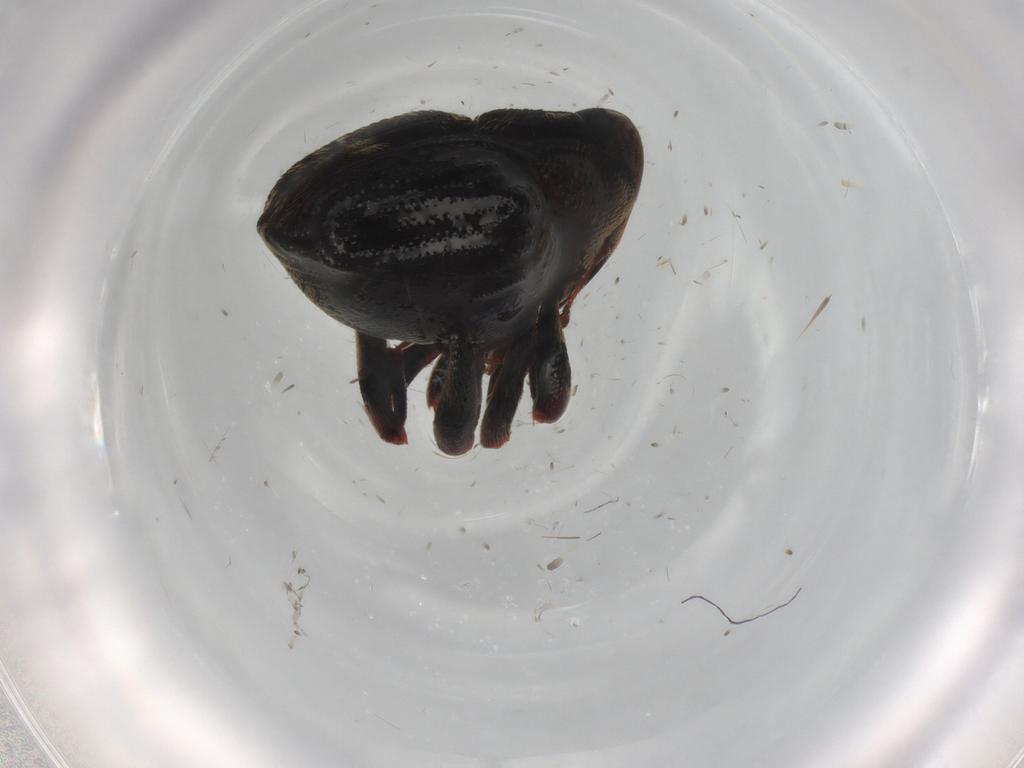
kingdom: Animalia
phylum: Arthropoda
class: Insecta
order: Coleoptera
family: Curculionidae
